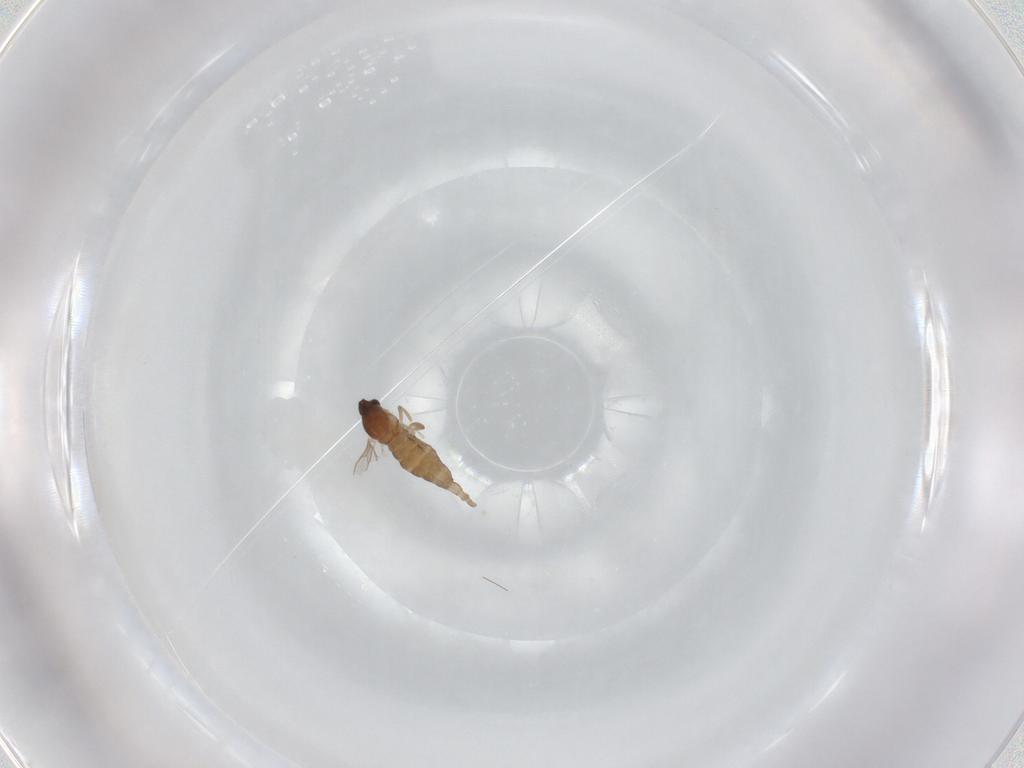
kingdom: Animalia
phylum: Arthropoda
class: Insecta
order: Diptera
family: Cecidomyiidae
